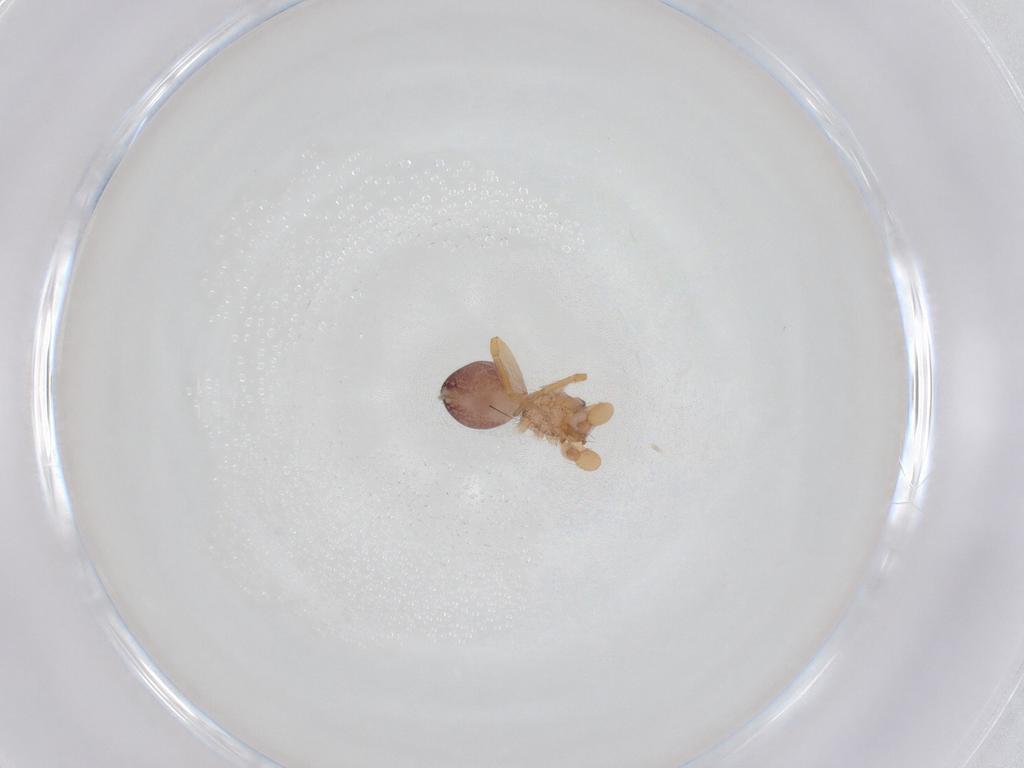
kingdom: Animalia
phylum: Arthropoda
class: Arachnida
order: Araneae
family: Idiopidae
